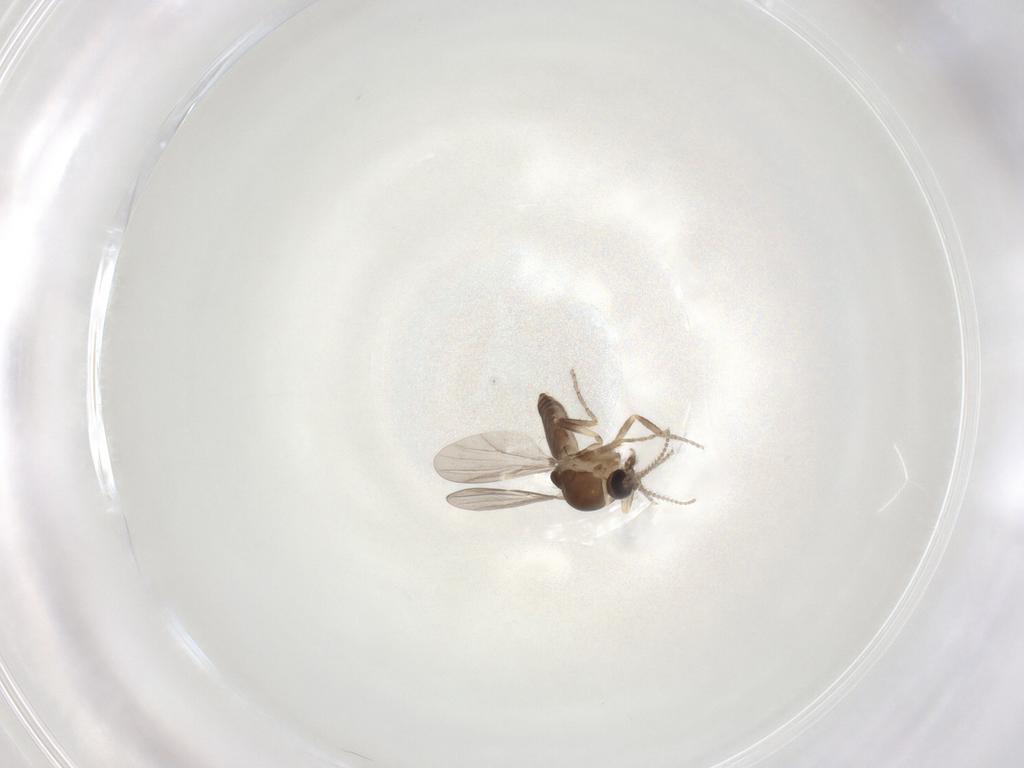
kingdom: Animalia
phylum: Arthropoda
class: Insecta
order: Diptera
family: Ceratopogonidae
